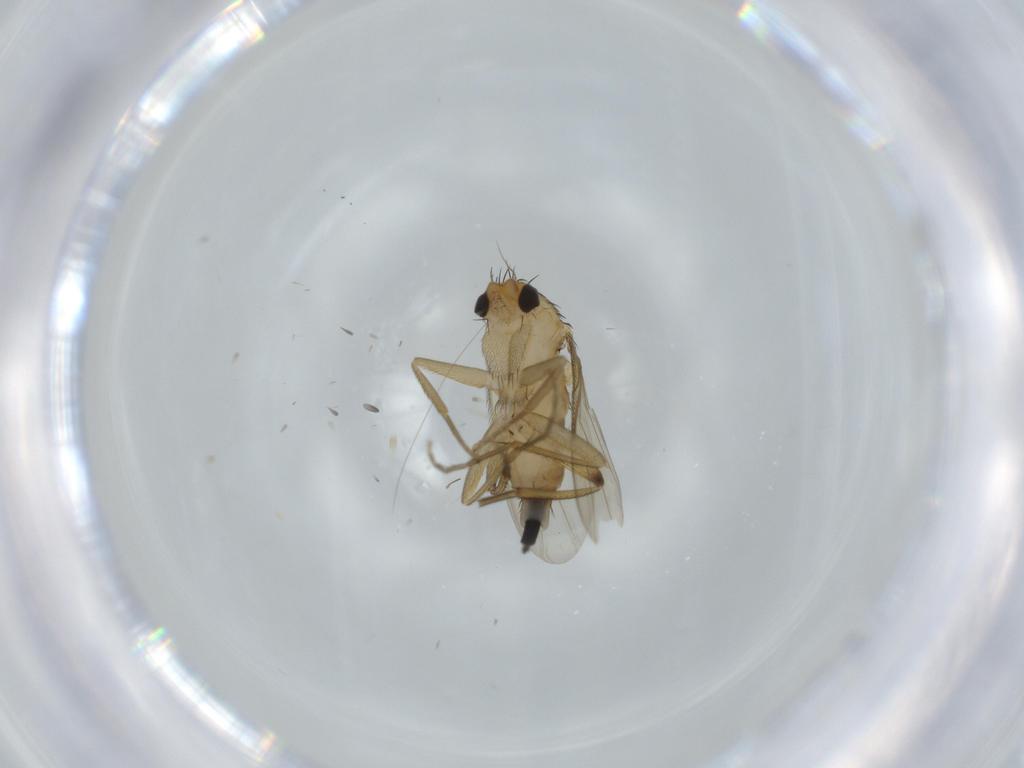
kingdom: Animalia
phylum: Arthropoda
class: Insecta
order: Diptera
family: Phoridae
